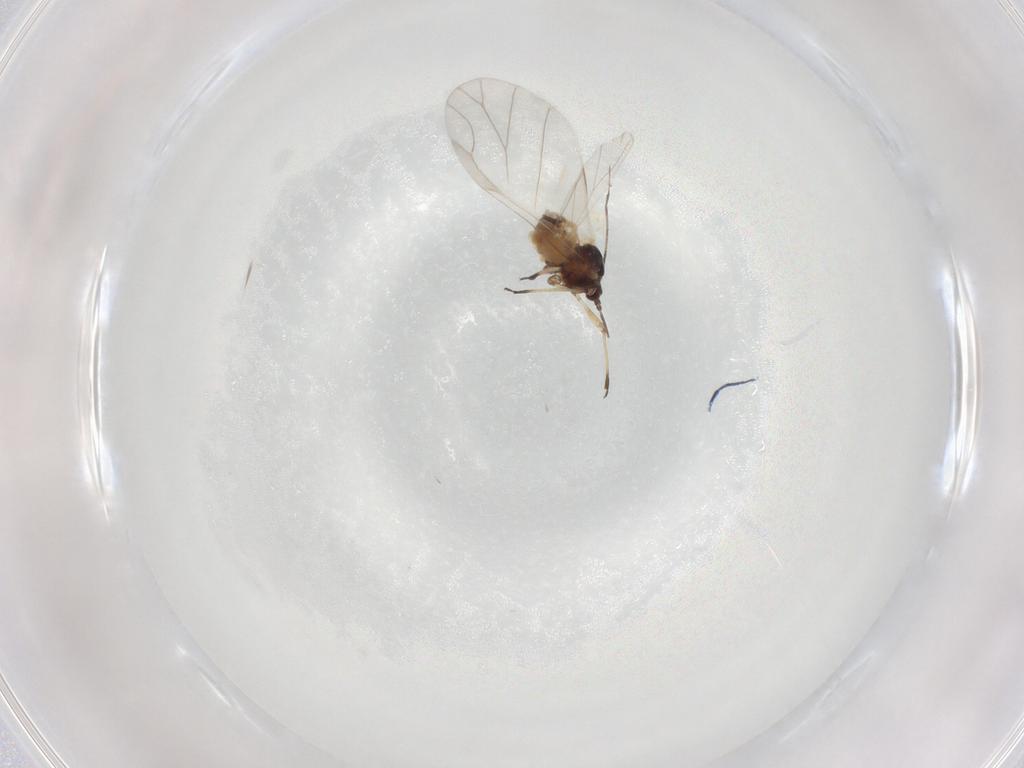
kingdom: Animalia
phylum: Arthropoda
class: Insecta
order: Hemiptera
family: Aphididae
